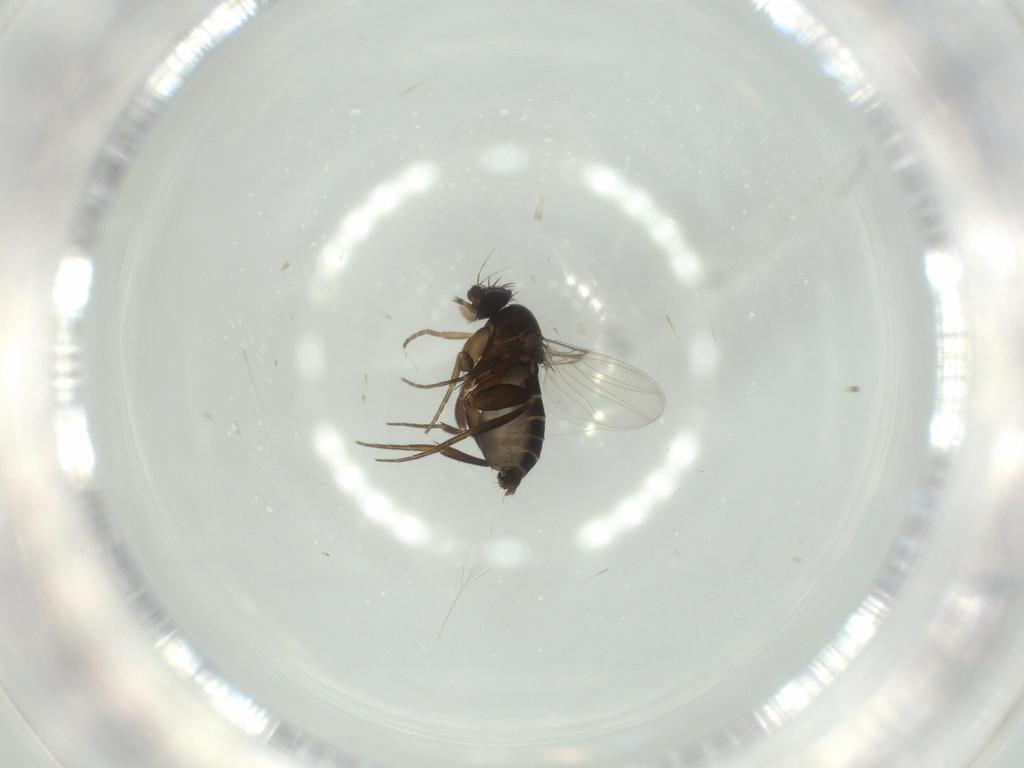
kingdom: Animalia
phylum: Arthropoda
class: Insecta
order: Diptera
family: Phoridae
